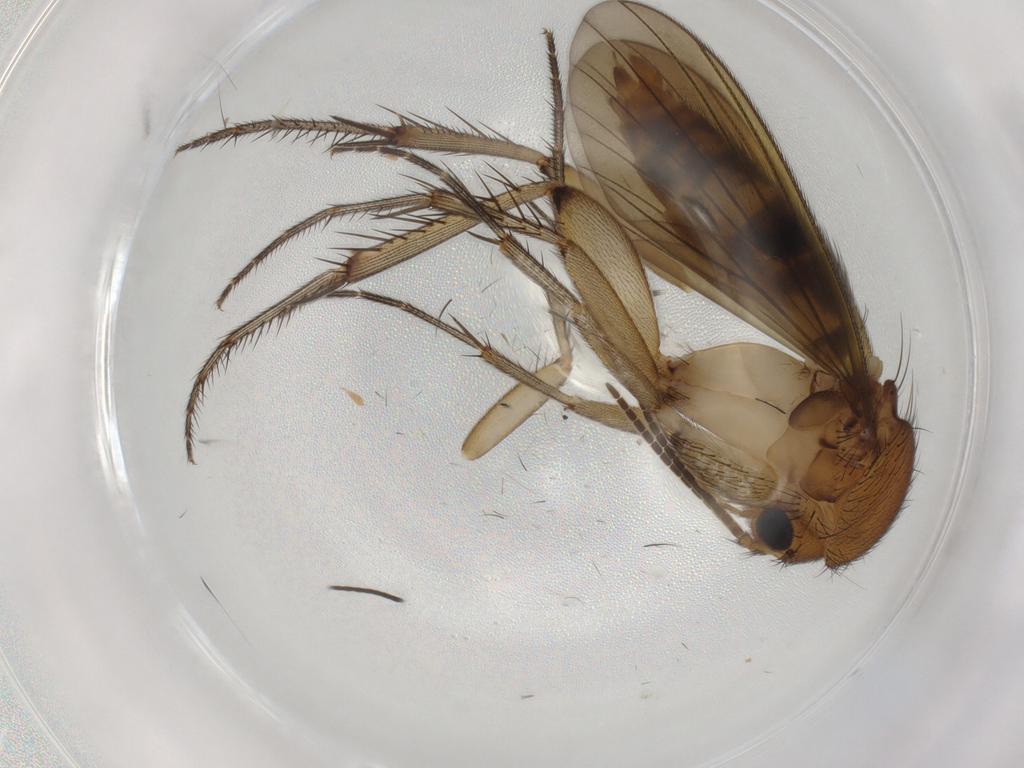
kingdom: Animalia
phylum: Arthropoda
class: Insecta
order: Diptera
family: Mycetophilidae
